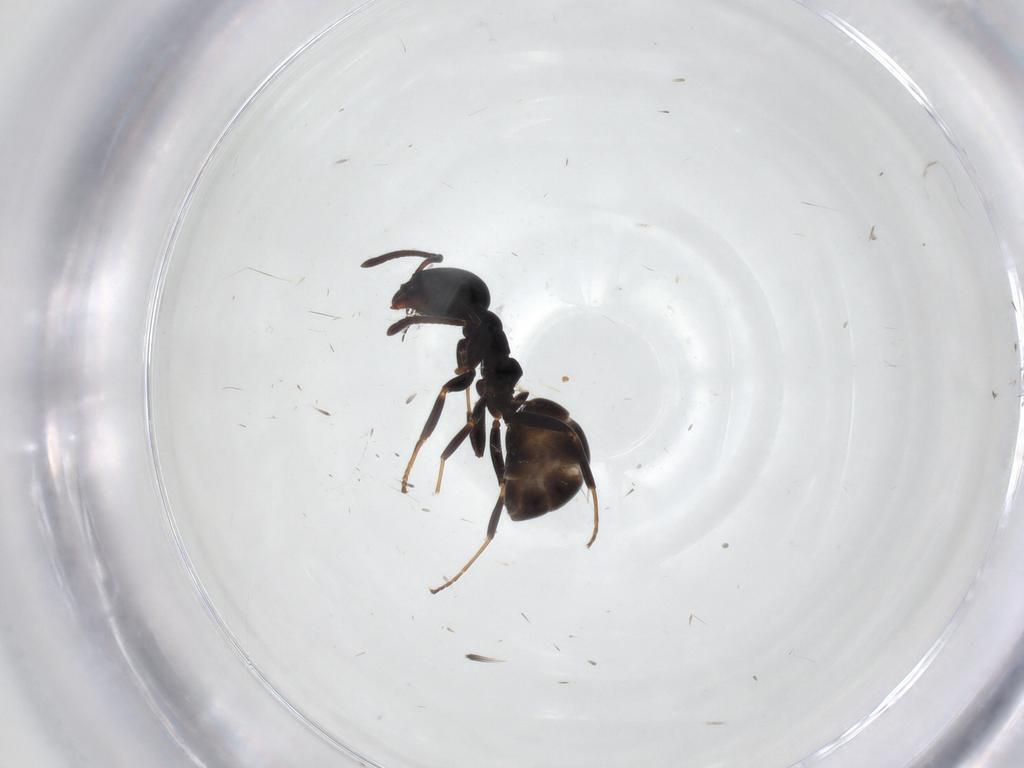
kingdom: Animalia
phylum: Arthropoda
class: Insecta
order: Hymenoptera
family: Formicidae
